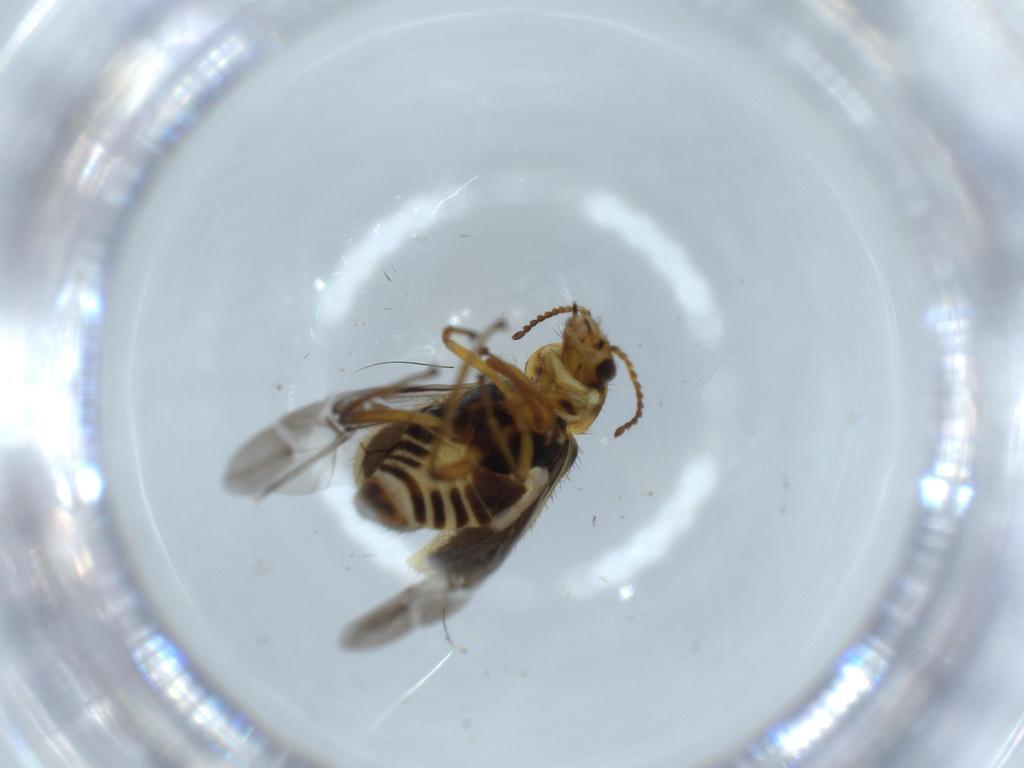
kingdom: Animalia
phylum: Arthropoda
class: Insecta
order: Coleoptera
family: Melyridae
